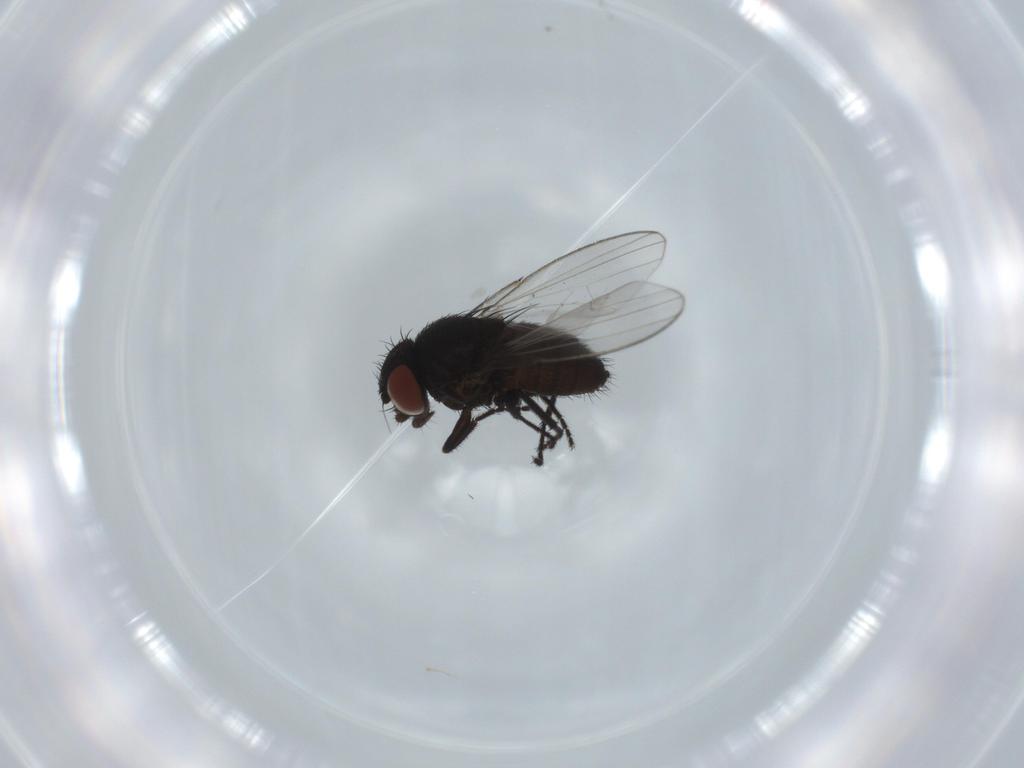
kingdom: Animalia
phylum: Arthropoda
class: Insecta
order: Diptera
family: Milichiidae
